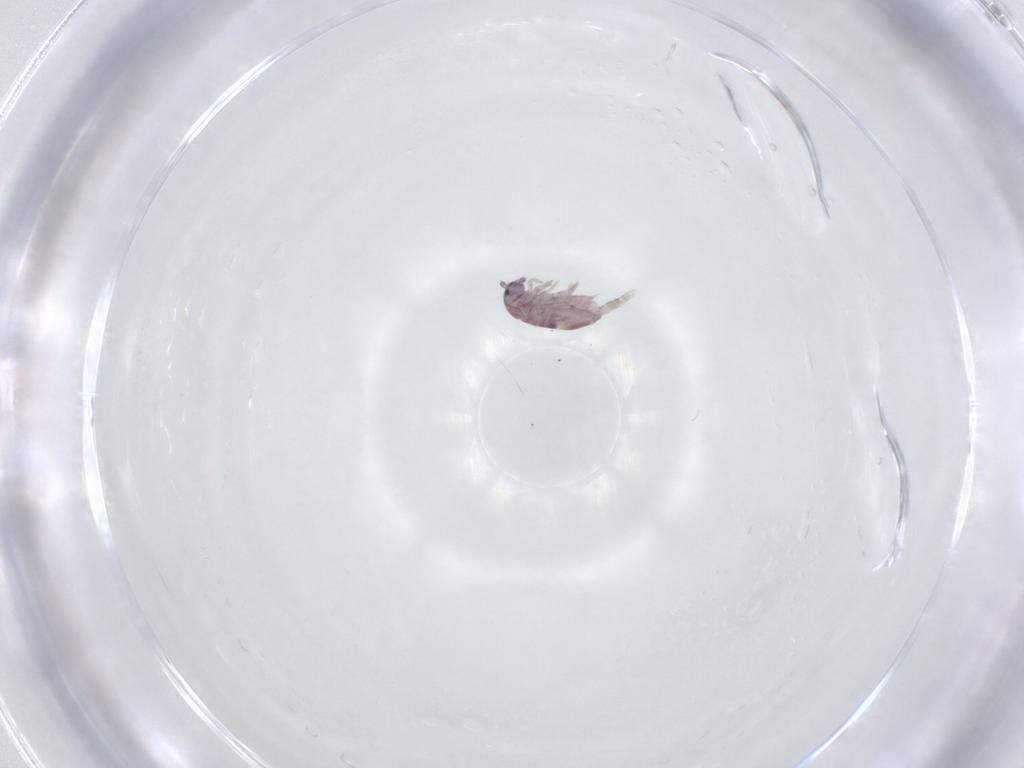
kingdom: Animalia
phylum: Arthropoda
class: Collembola
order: Entomobryomorpha
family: Entomobryidae
